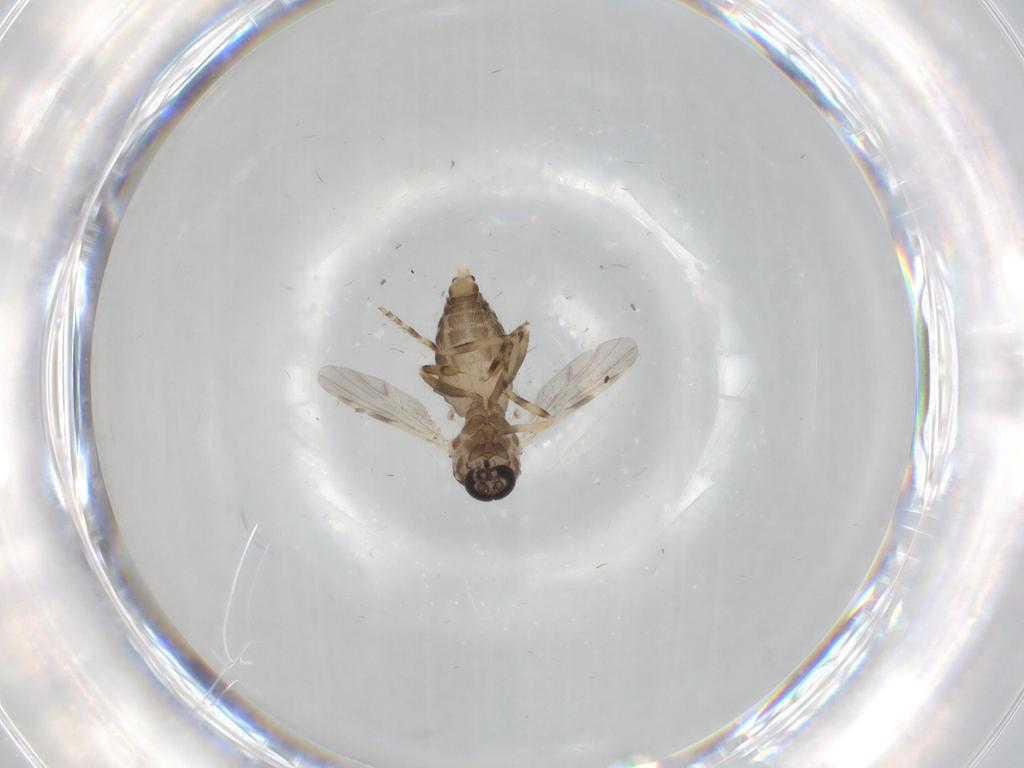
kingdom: Animalia
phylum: Arthropoda
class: Insecta
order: Diptera
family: Ceratopogonidae
